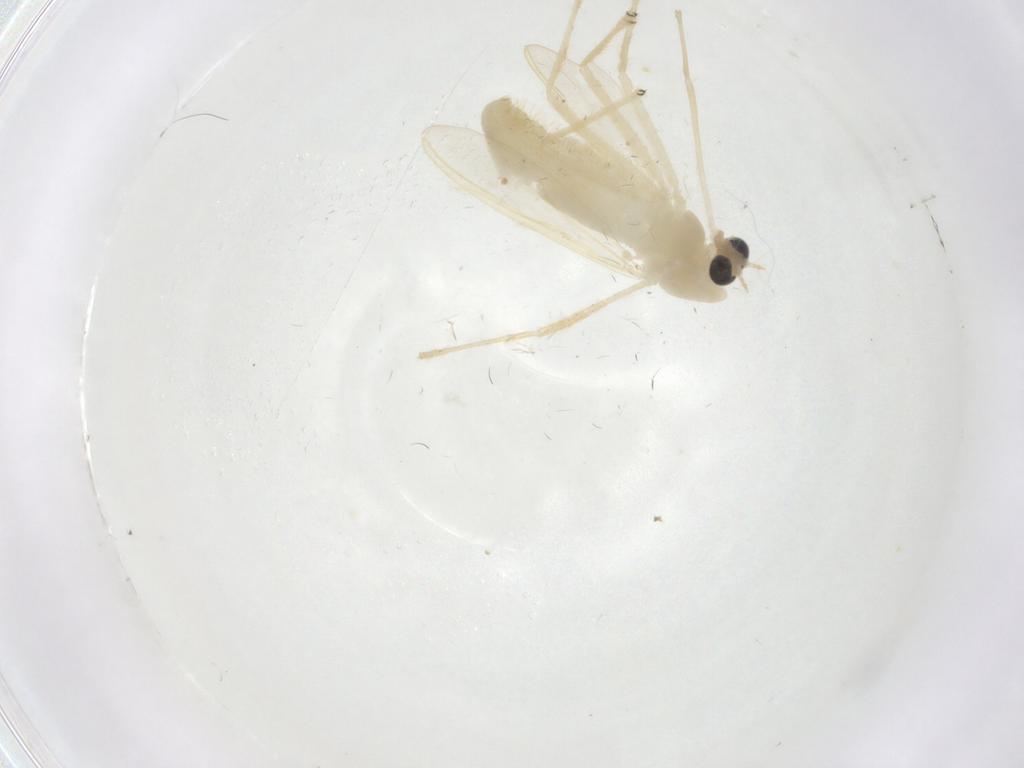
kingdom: Animalia
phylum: Arthropoda
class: Insecta
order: Diptera
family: Chironomidae
